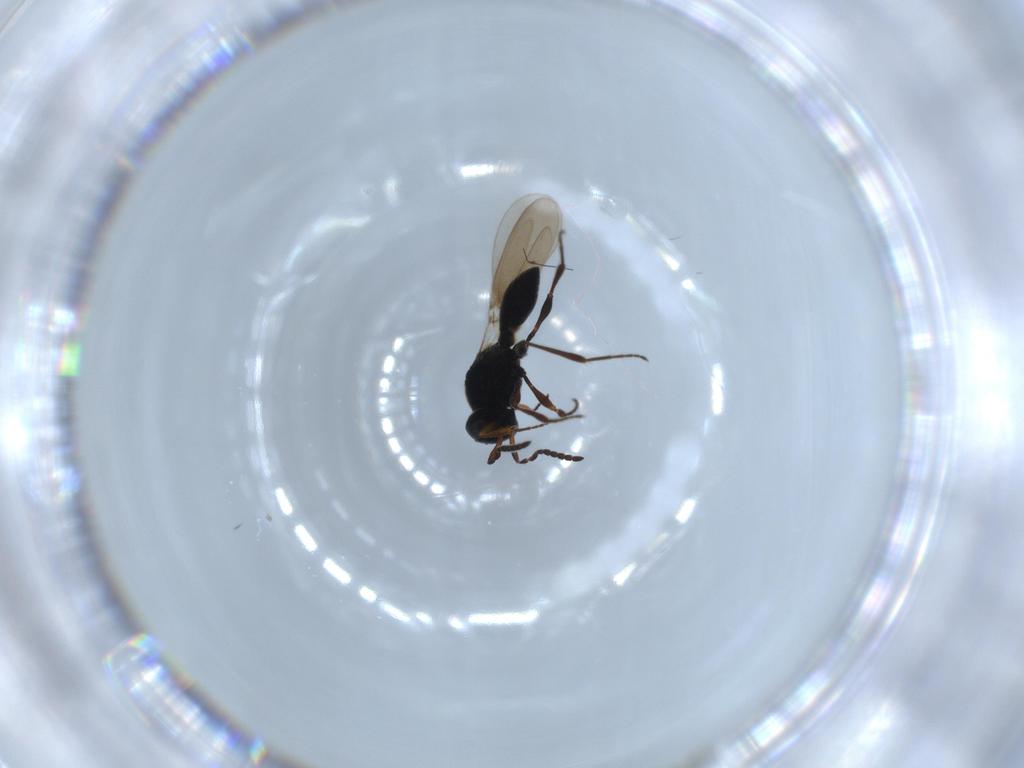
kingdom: Animalia
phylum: Arthropoda
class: Insecta
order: Hymenoptera
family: Platygastridae
